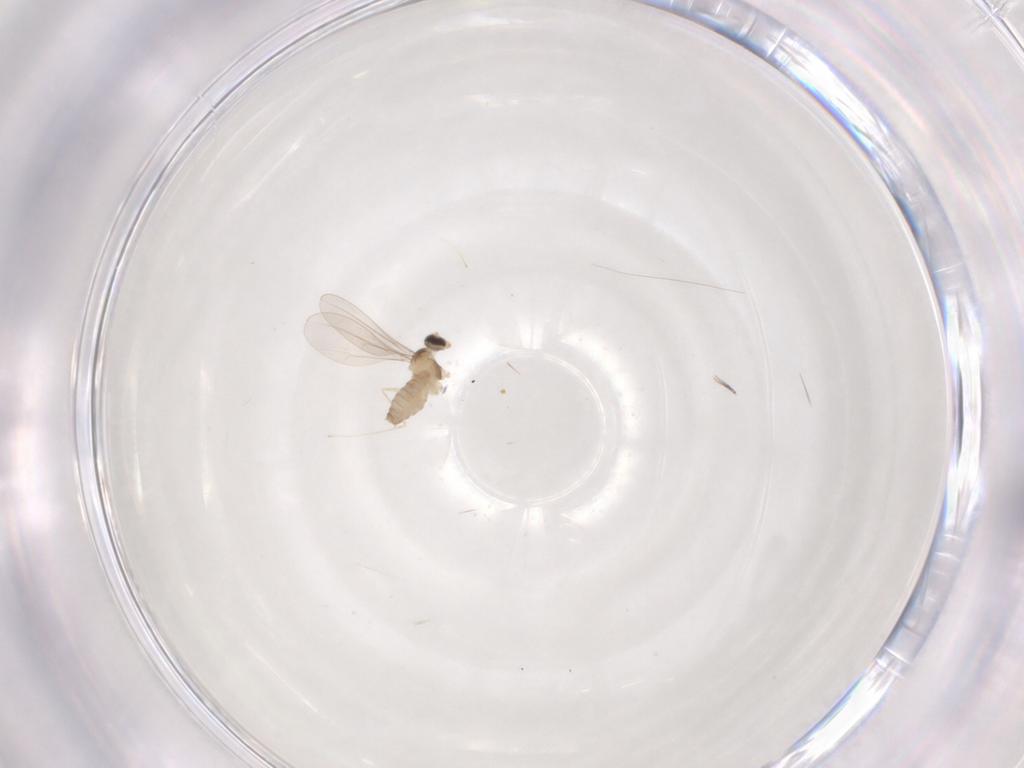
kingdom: Animalia
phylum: Arthropoda
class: Insecta
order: Diptera
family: Cecidomyiidae
